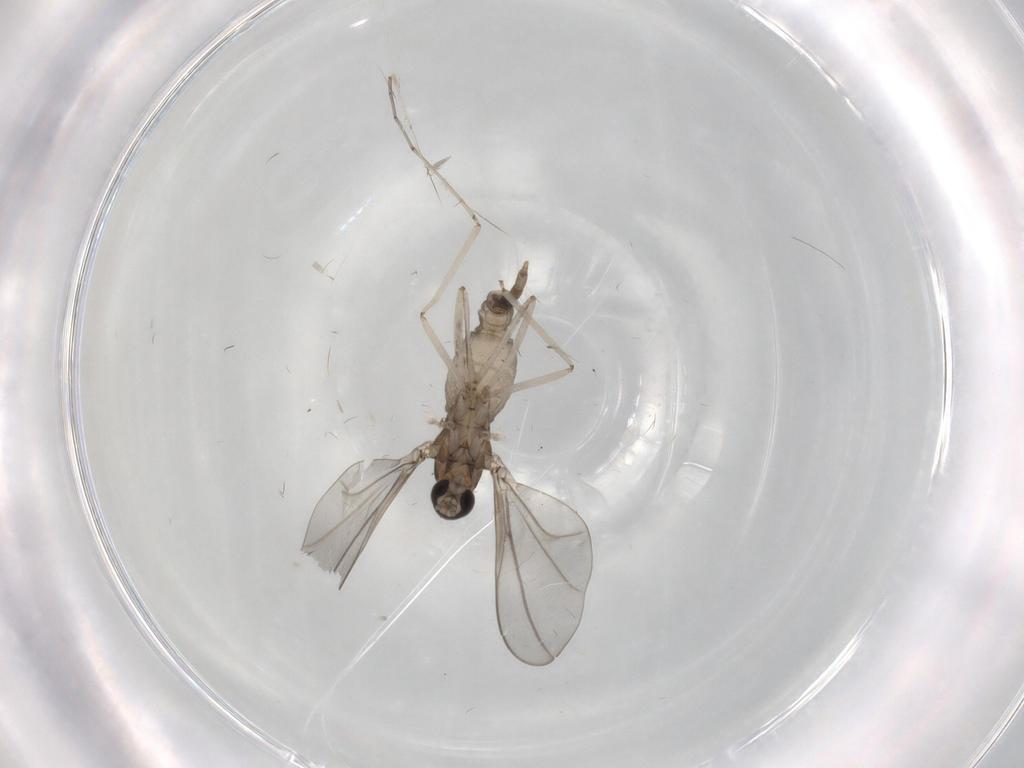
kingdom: Animalia
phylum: Arthropoda
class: Insecta
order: Diptera
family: Cecidomyiidae
